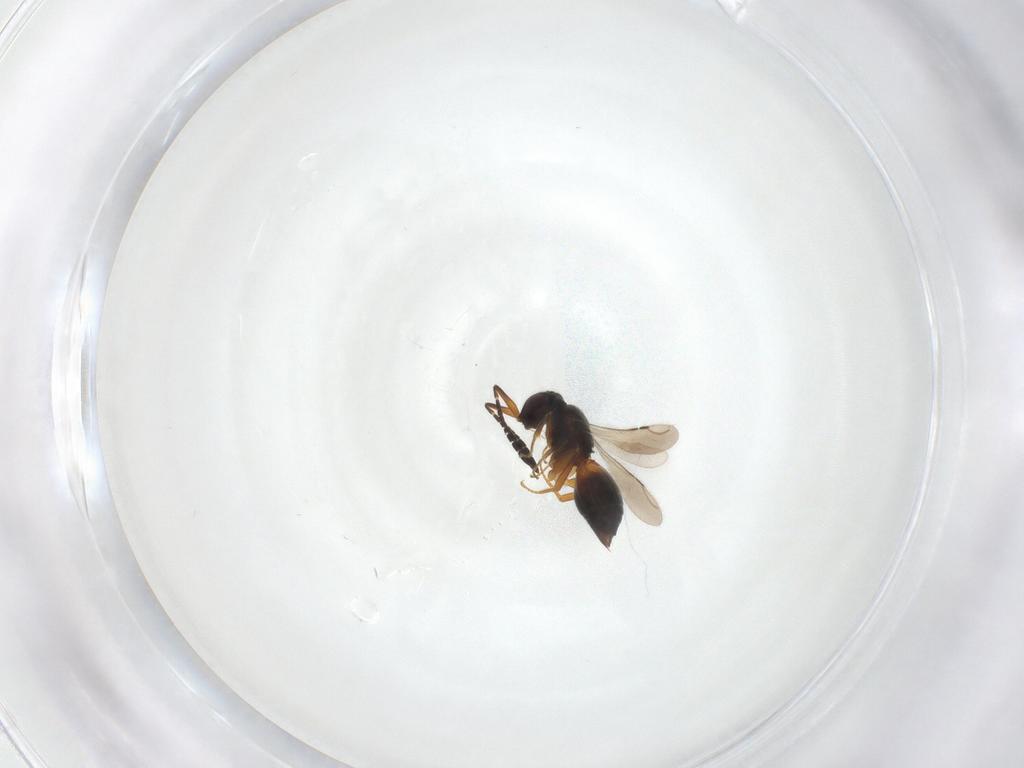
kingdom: Animalia
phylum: Arthropoda
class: Insecta
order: Hymenoptera
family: Ceraphronidae
